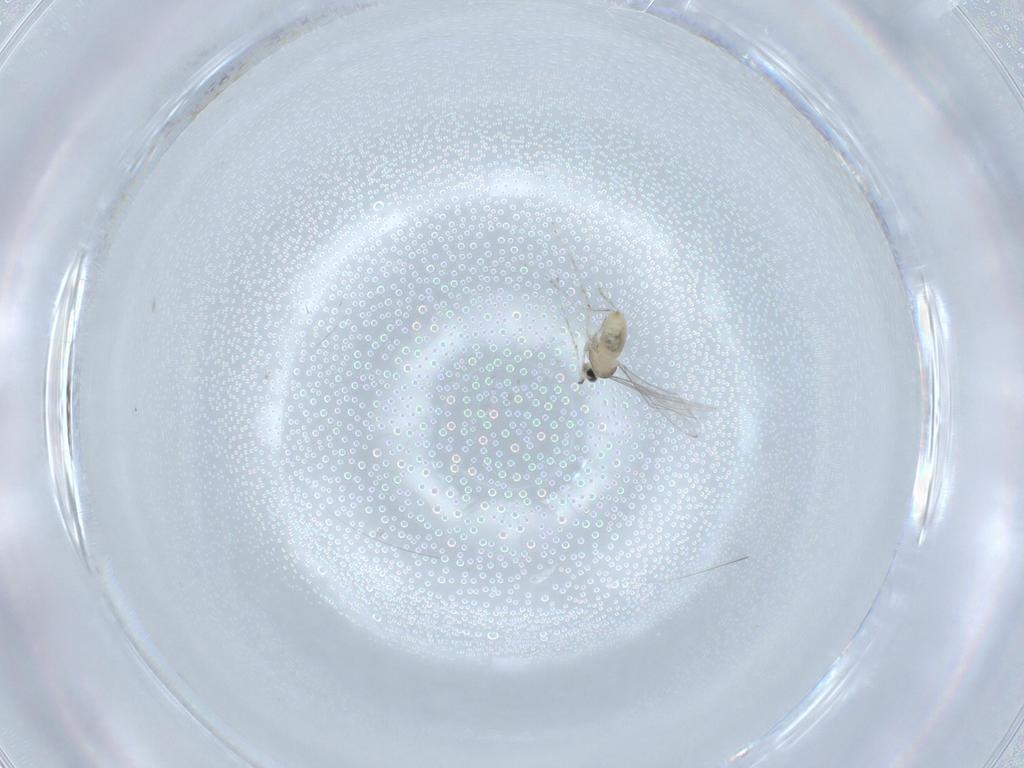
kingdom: Animalia
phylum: Arthropoda
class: Insecta
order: Diptera
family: Cecidomyiidae
